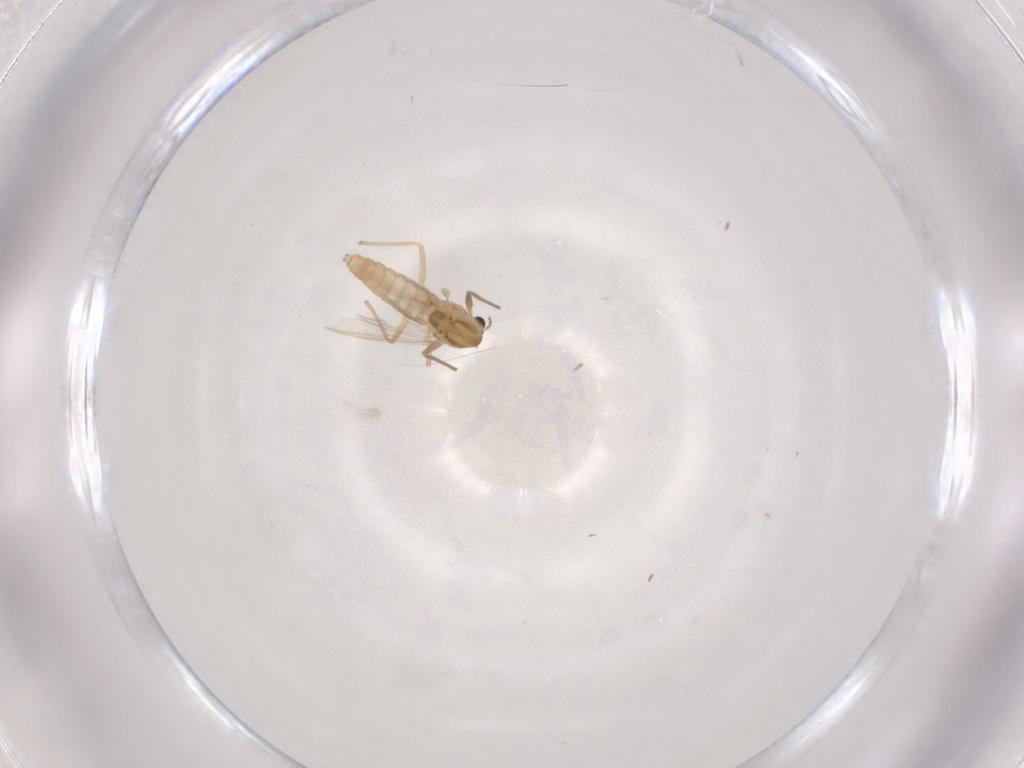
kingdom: Animalia
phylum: Arthropoda
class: Insecta
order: Diptera
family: Chironomidae
